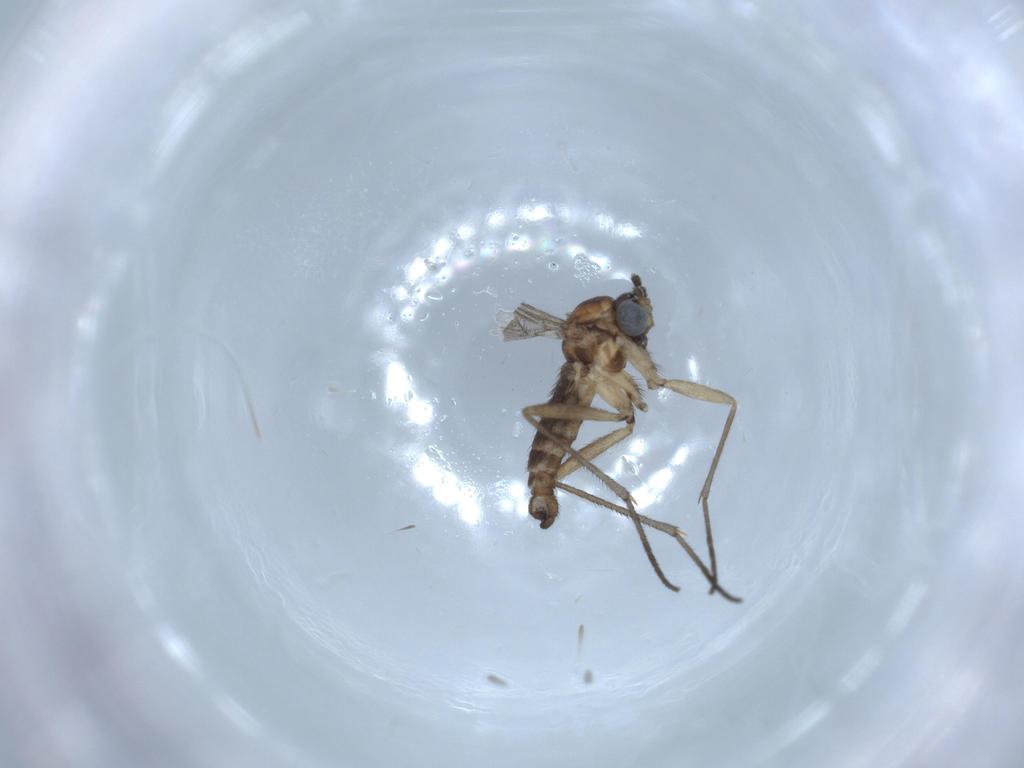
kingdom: Animalia
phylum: Arthropoda
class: Insecta
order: Diptera
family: Sciaridae
